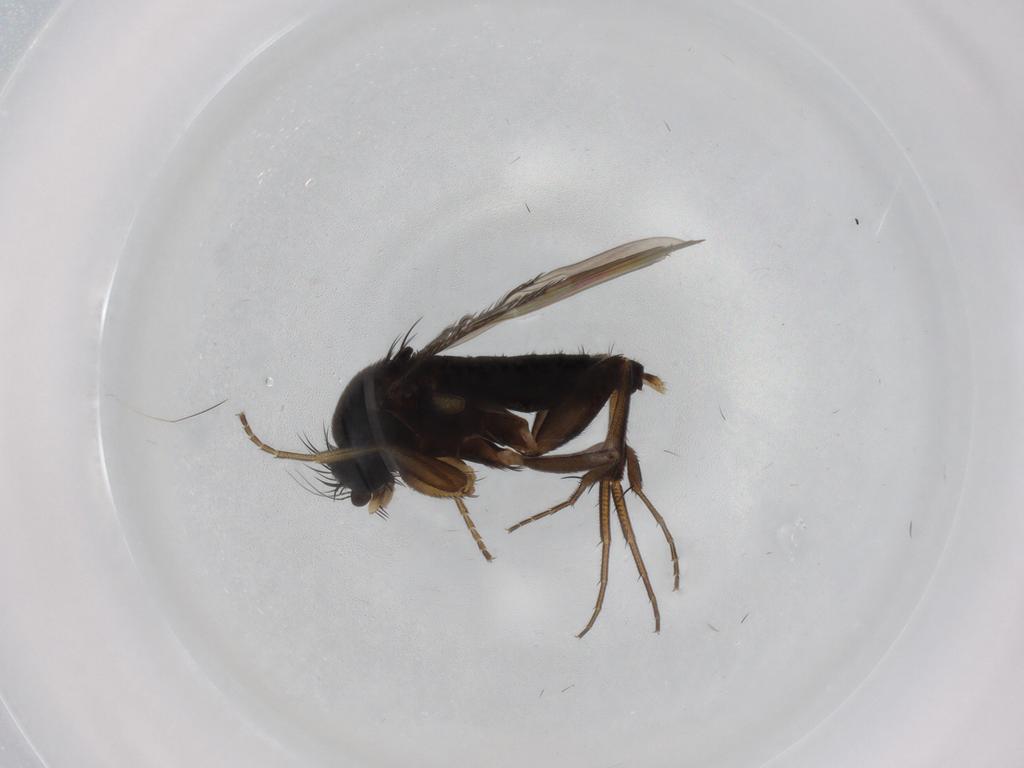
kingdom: Animalia
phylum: Arthropoda
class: Insecta
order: Diptera
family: Phoridae
